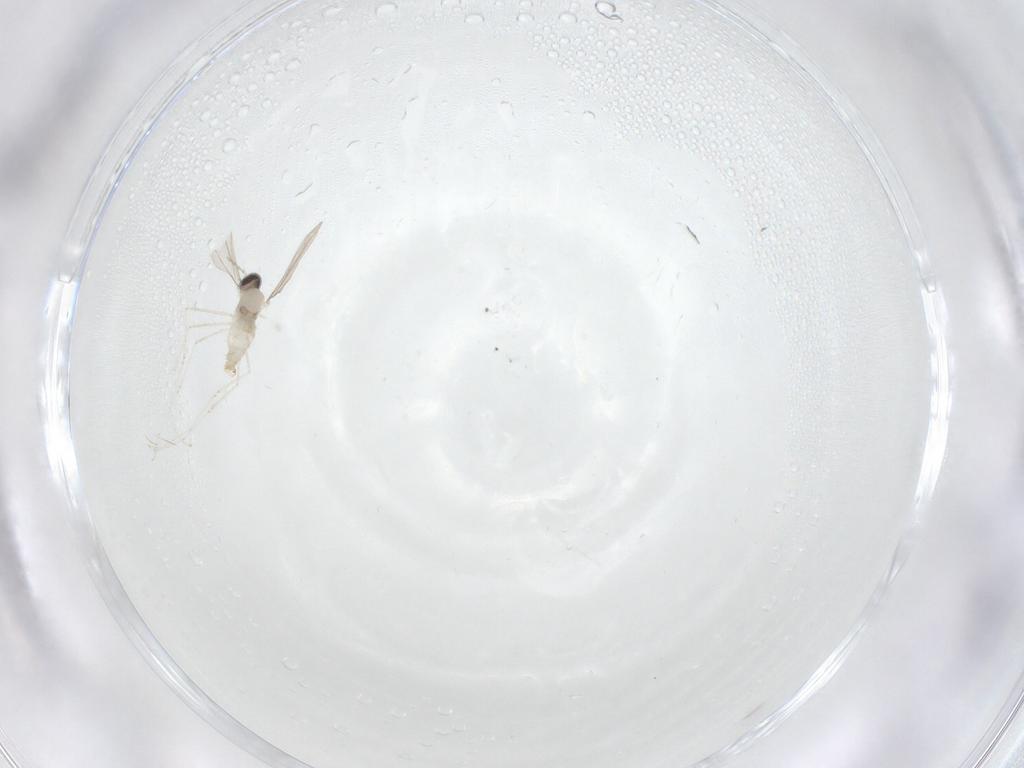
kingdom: Animalia
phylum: Arthropoda
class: Insecta
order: Diptera
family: Cecidomyiidae
